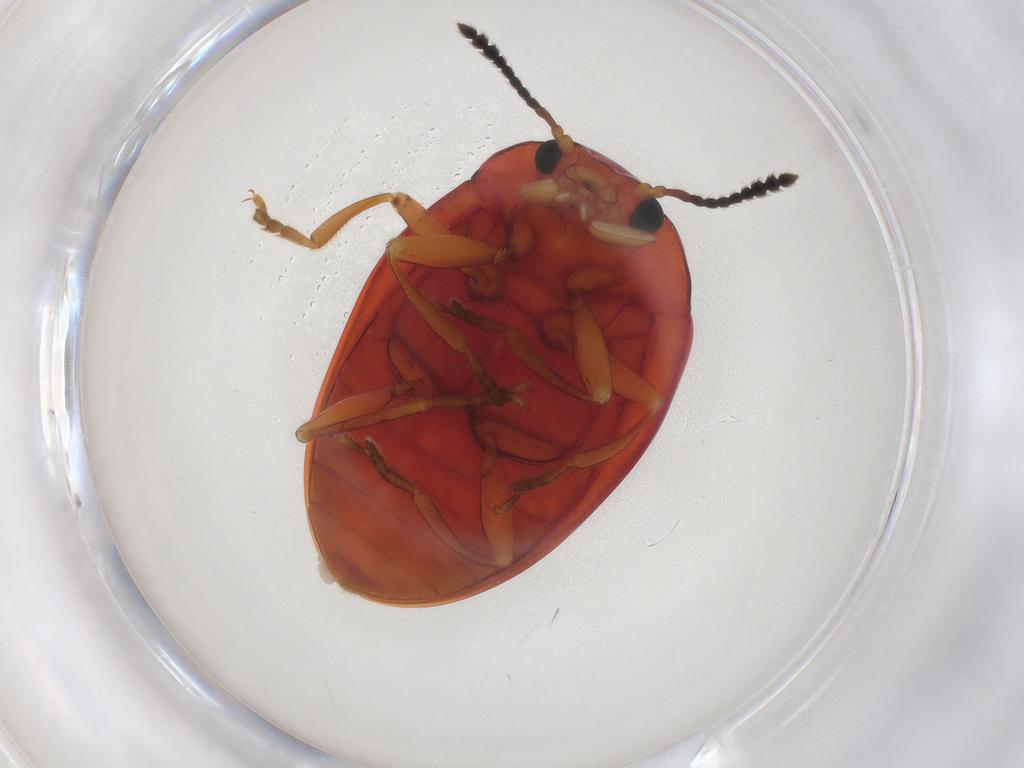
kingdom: Animalia
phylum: Arthropoda
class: Insecta
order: Coleoptera
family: Erotylidae
